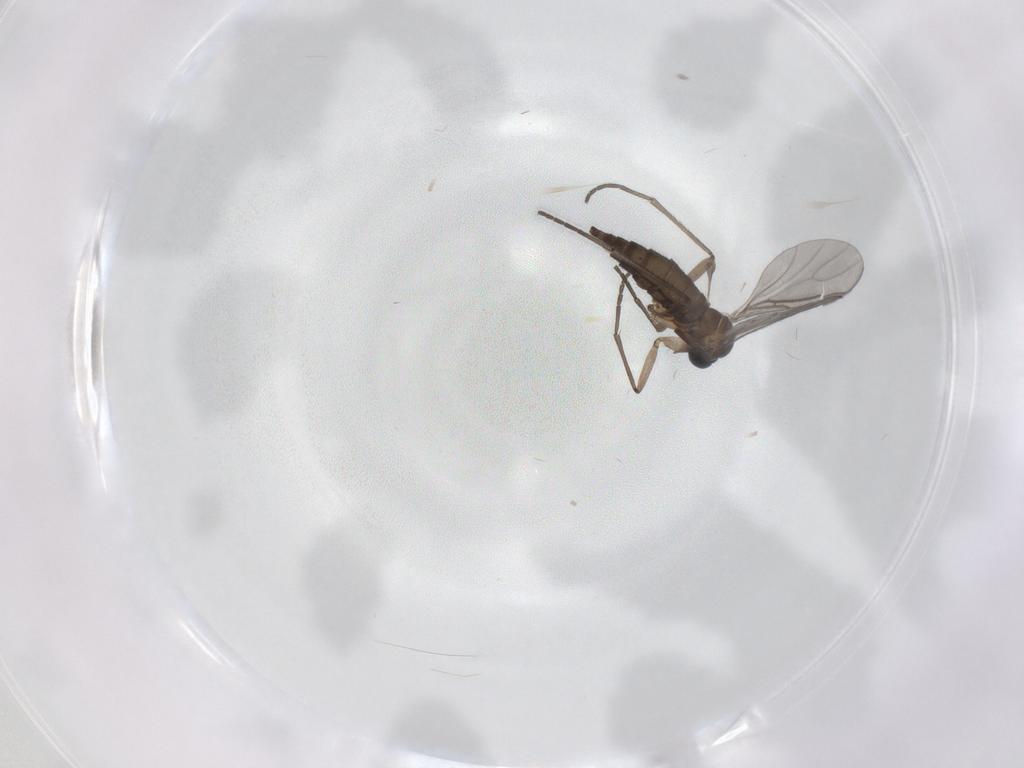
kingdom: Animalia
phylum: Arthropoda
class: Insecta
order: Diptera
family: Sciaridae
